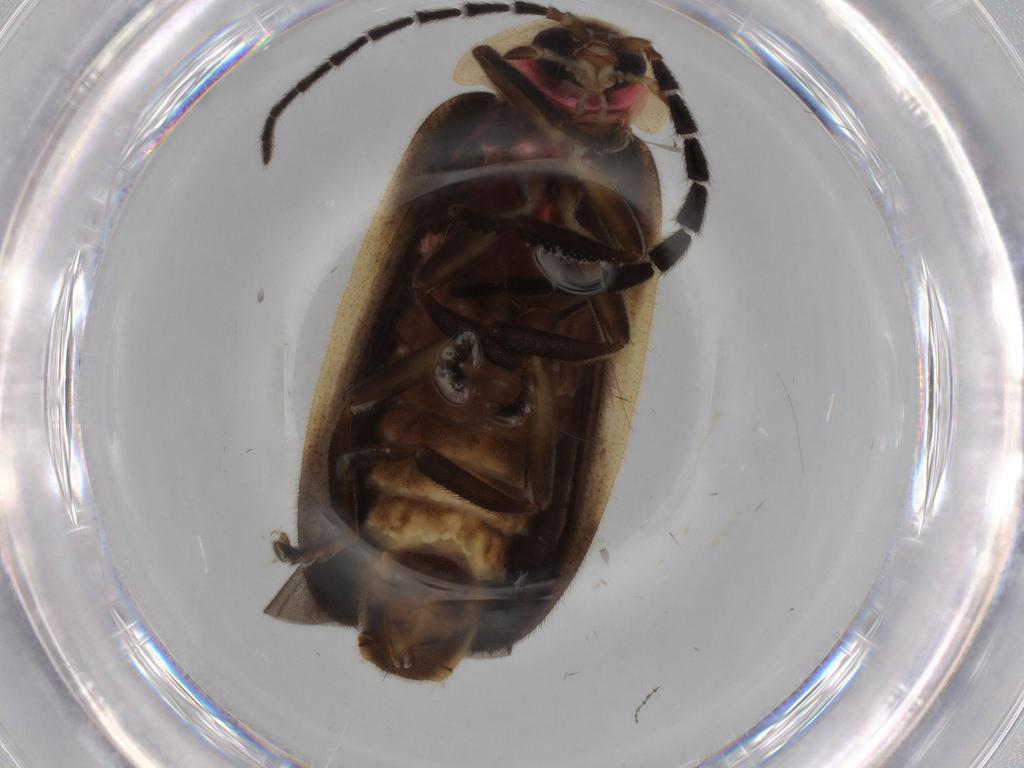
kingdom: Animalia
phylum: Arthropoda
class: Insecta
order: Coleoptera
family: Lampyridae
